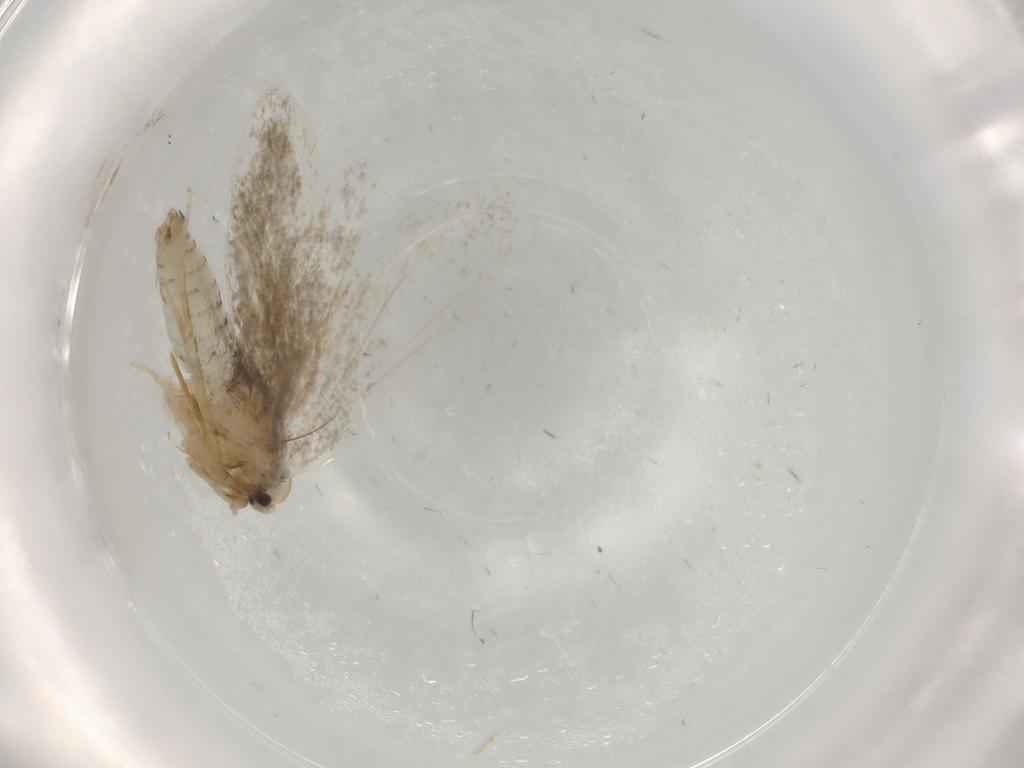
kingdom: Animalia
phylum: Arthropoda
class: Insecta
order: Lepidoptera
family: Psychidae
